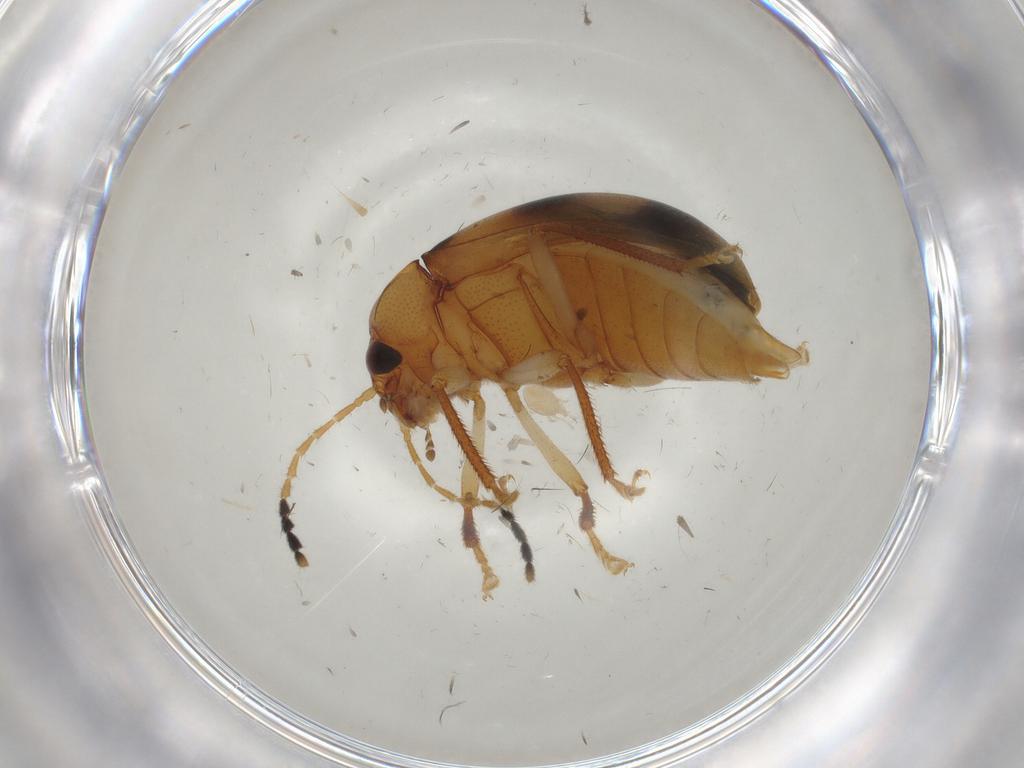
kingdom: Animalia
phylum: Arthropoda
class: Insecta
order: Coleoptera
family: Ptilodactylidae
